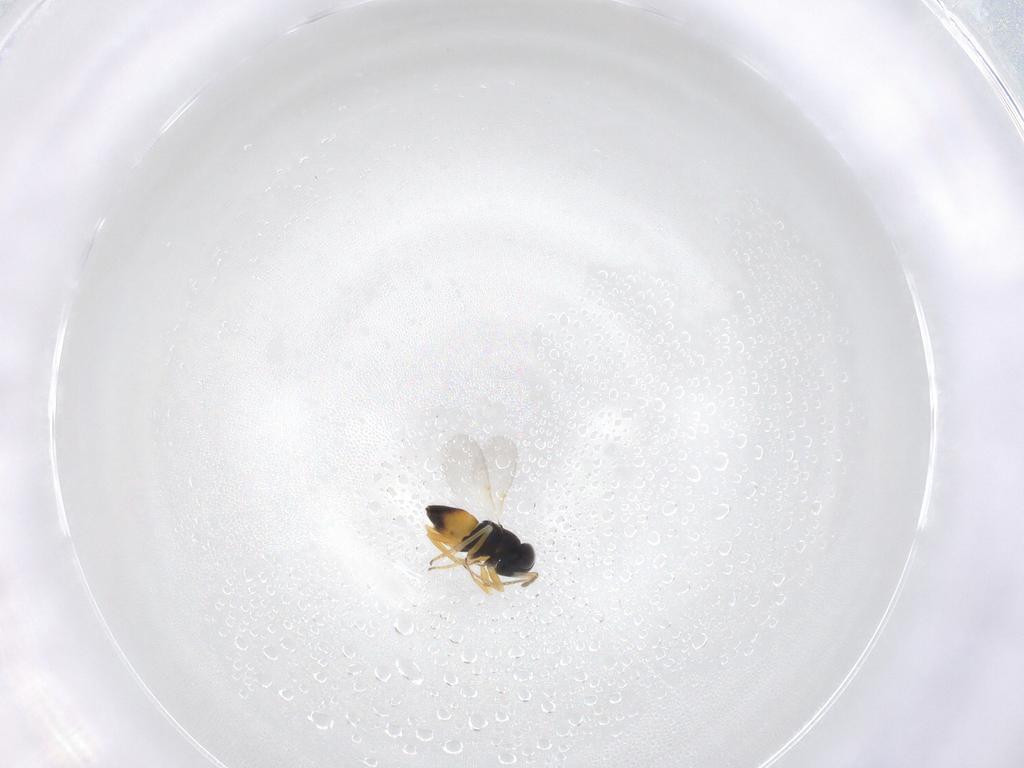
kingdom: Animalia
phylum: Arthropoda
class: Insecta
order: Hymenoptera
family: Encyrtidae
